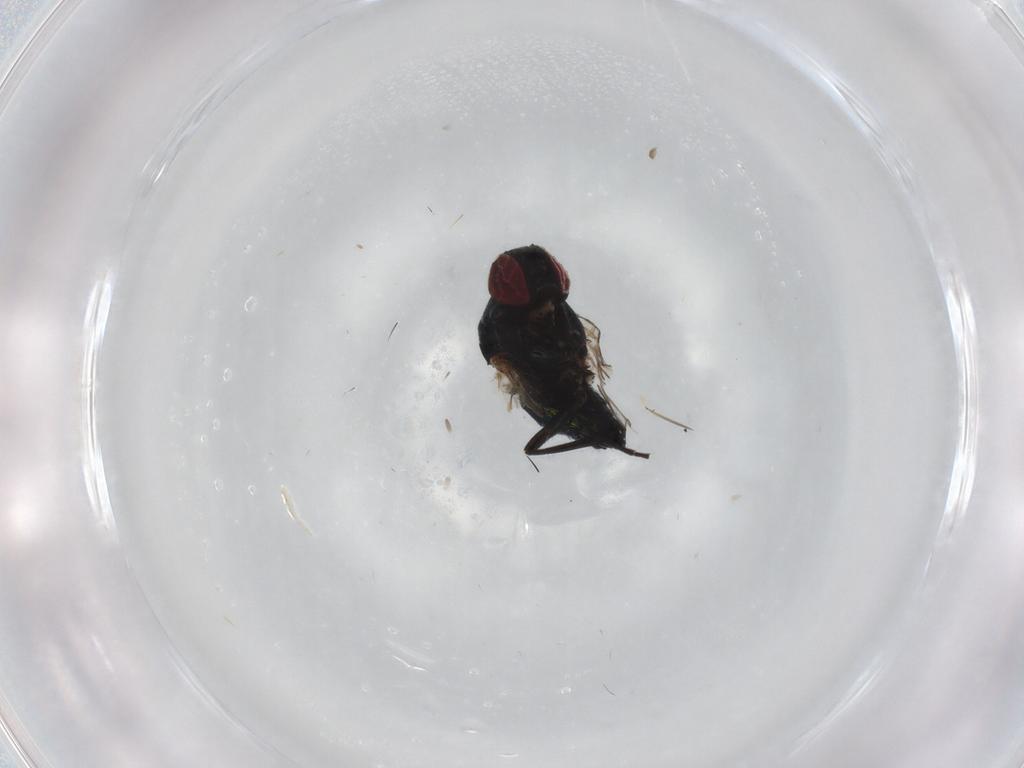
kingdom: Animalia
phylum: Arthropoda
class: Insecta
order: Diptera
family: Agromyzidae
